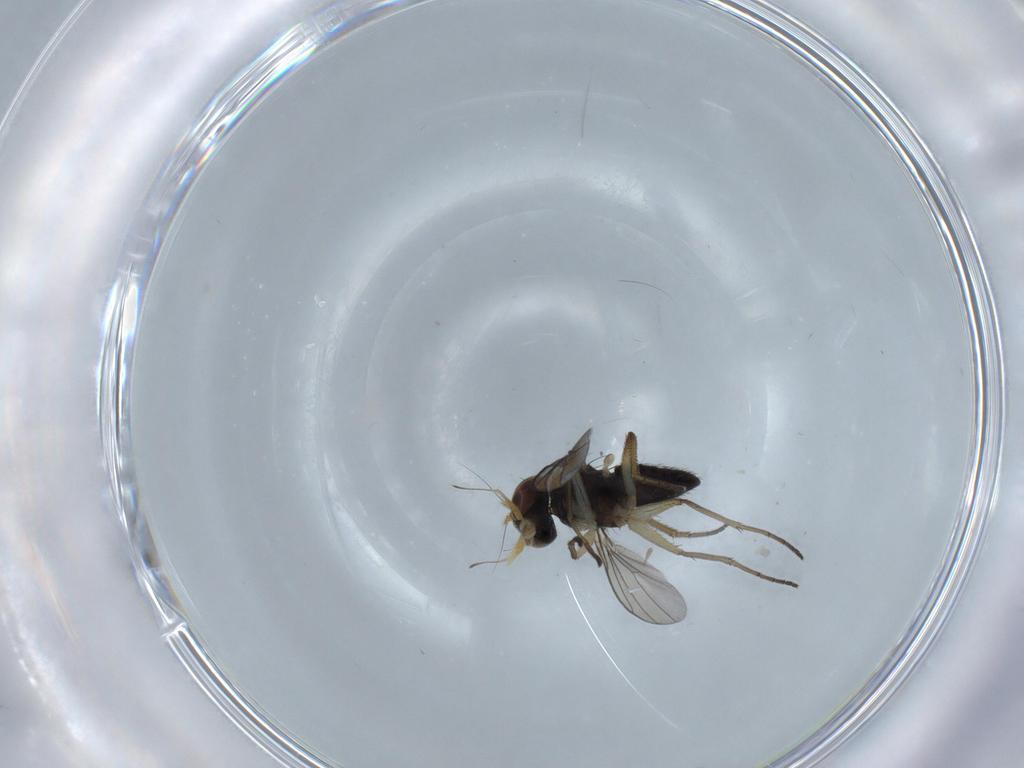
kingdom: Animalia
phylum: Arthropoda
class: Insecta
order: Diptera
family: Dolichopodidae
